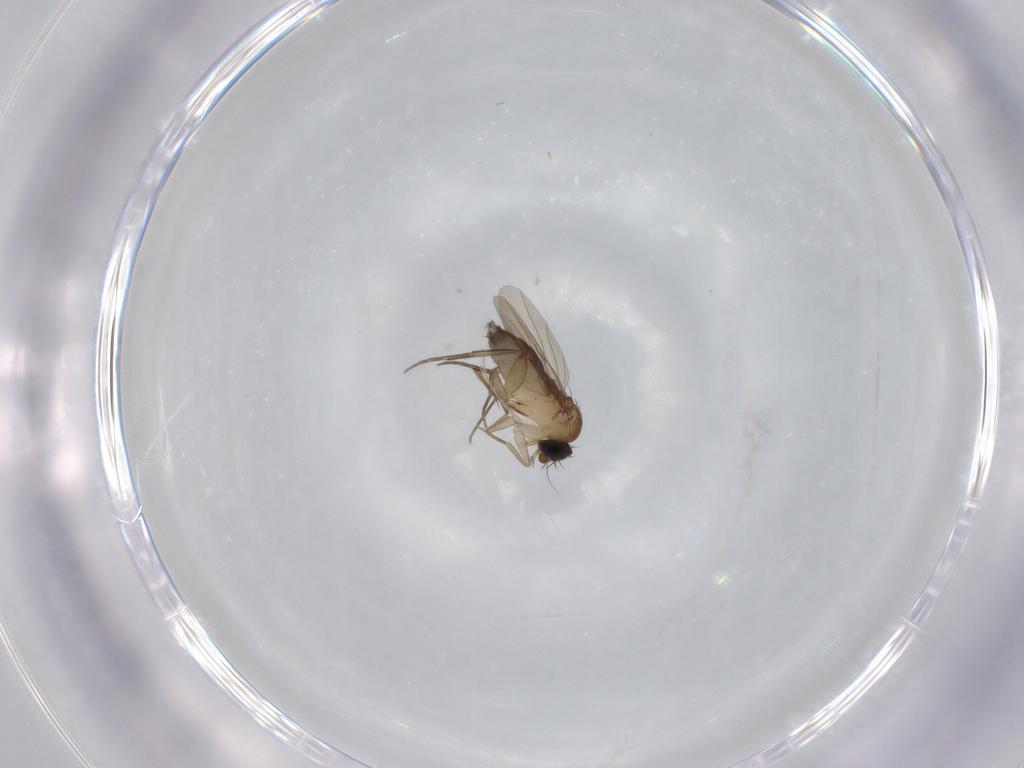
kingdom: Animalia
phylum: Arthropoda
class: Insecta
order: Diptera
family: Phoridae
